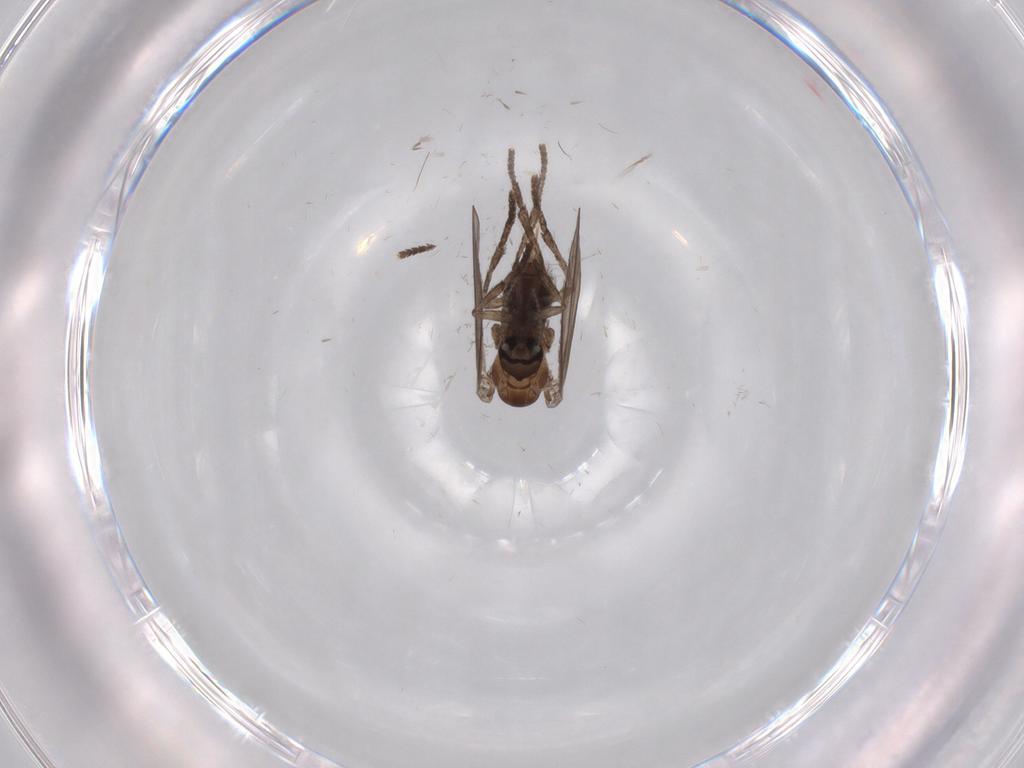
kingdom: Animalia
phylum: Arthropoda
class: Insecta
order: Diptera
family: Psychodidae
